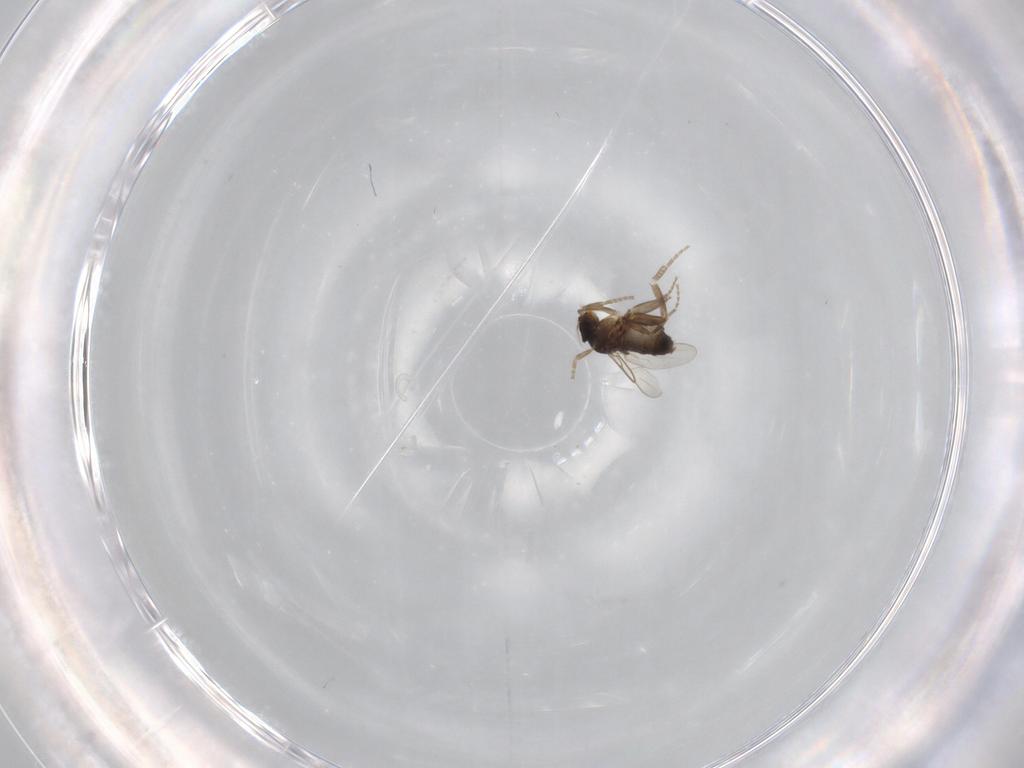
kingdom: Animalia
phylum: Arthropoda
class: Insecta
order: Diptera
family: Phoridae
